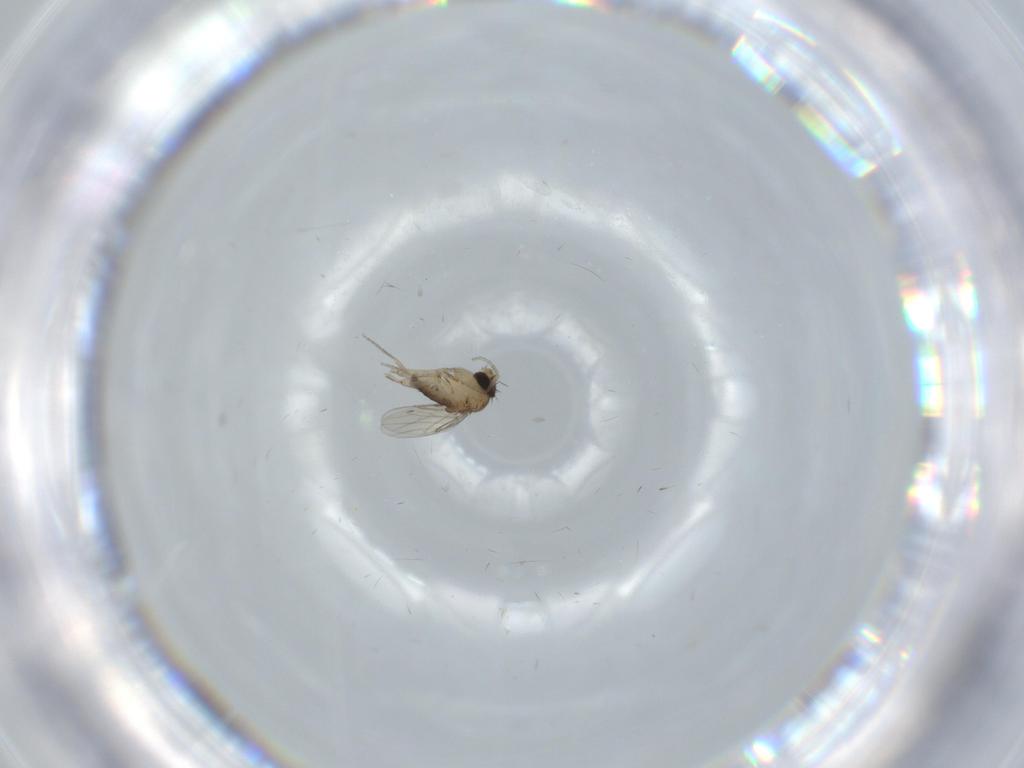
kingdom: Animalia
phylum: Arthropoda
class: Insecta
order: Diptera
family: Phoridae
